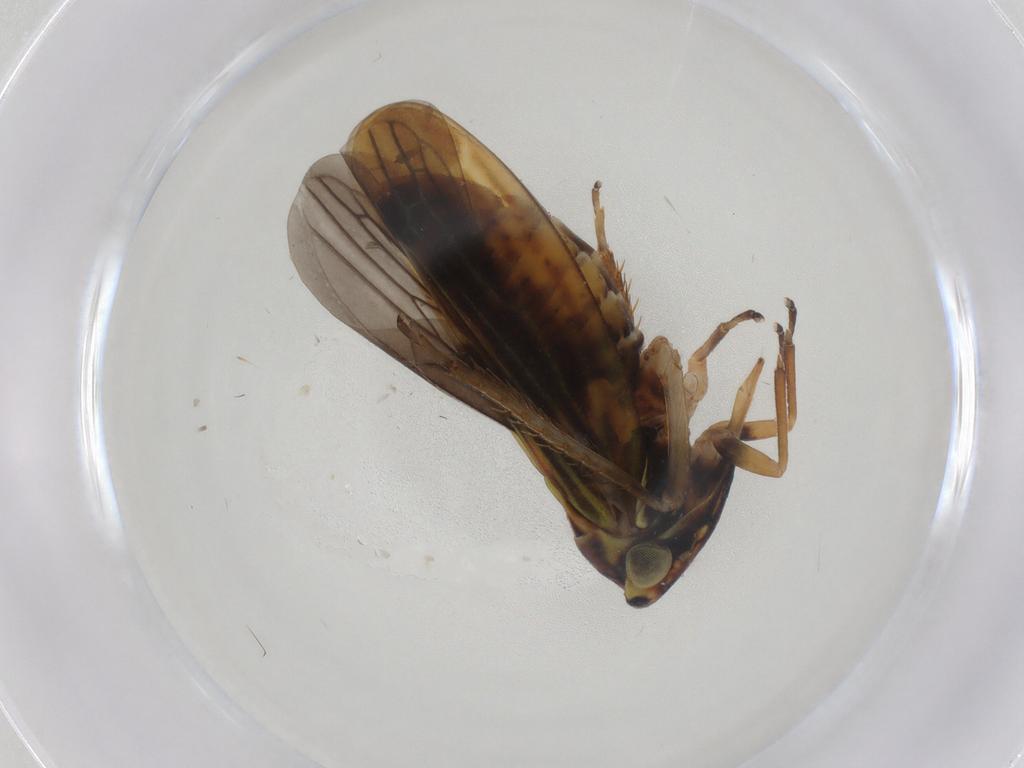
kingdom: Animalia
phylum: Arthropoda
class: Insecta
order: Hemiptera
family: Cicadellidae
